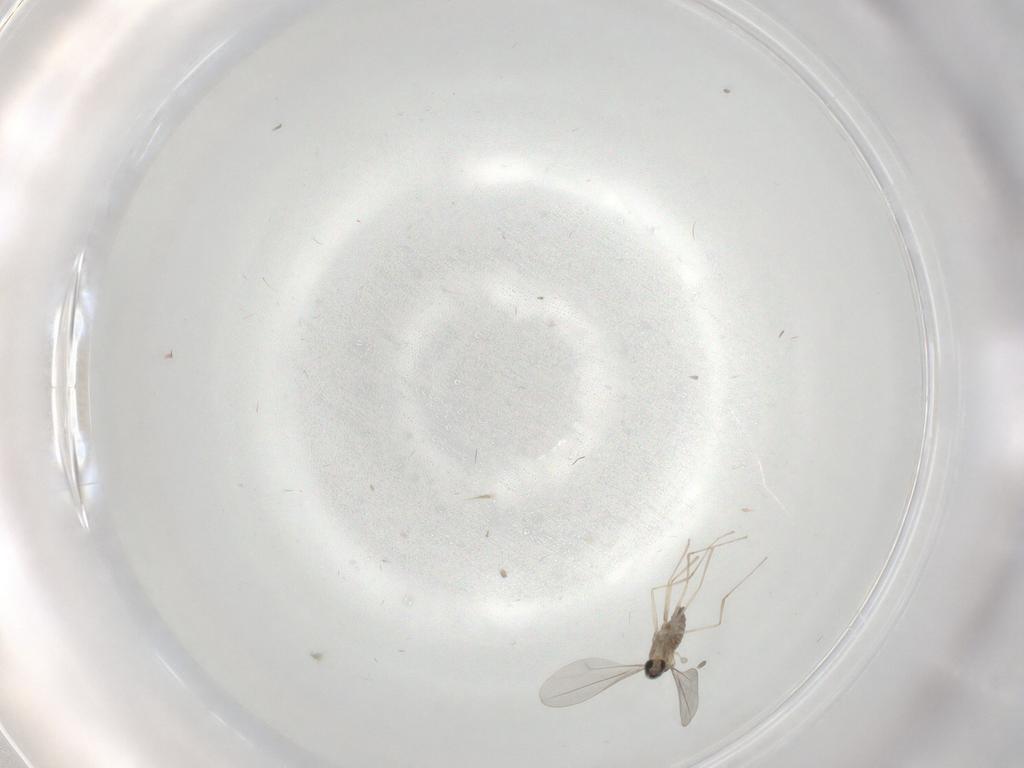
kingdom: Animalia
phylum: Arthropoda
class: Insecta
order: Diptera
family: Cecidomyiidae
